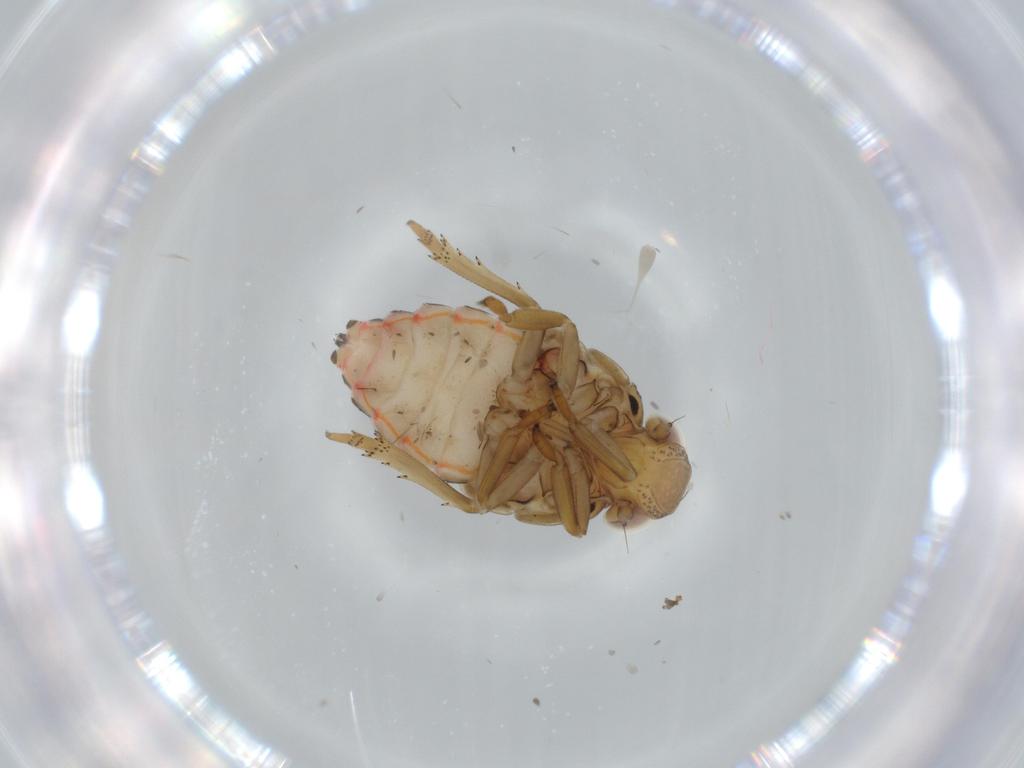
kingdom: Animalia
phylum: Arthropoda
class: Insecta
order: Hemiptera
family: Issidae
